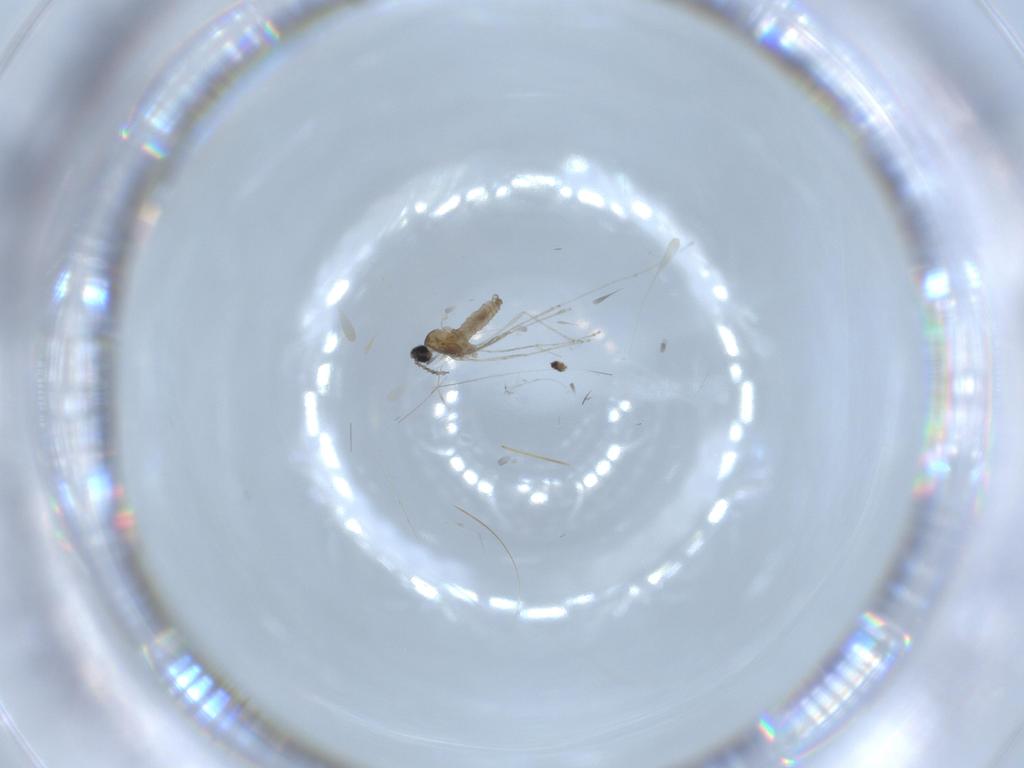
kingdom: Animalia
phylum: Arthropoda
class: Insecta
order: Diptera
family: Cecidomyiidae
